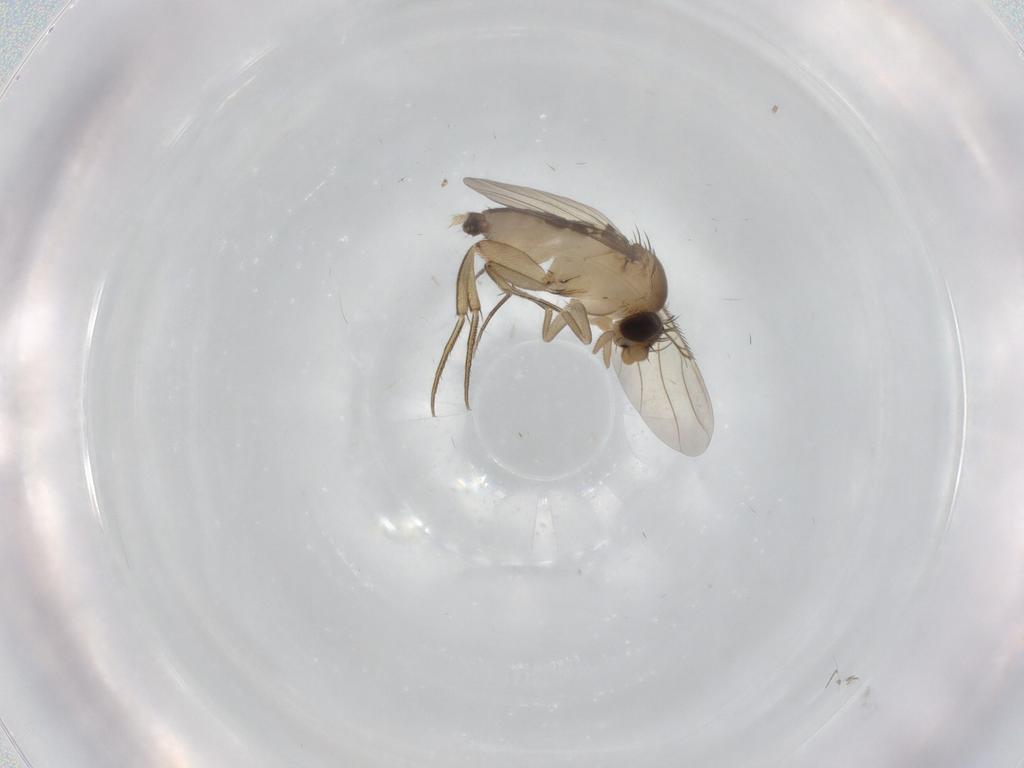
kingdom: Animalia
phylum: Arthropoda
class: Insecta
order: Diptera
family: Phoridae
